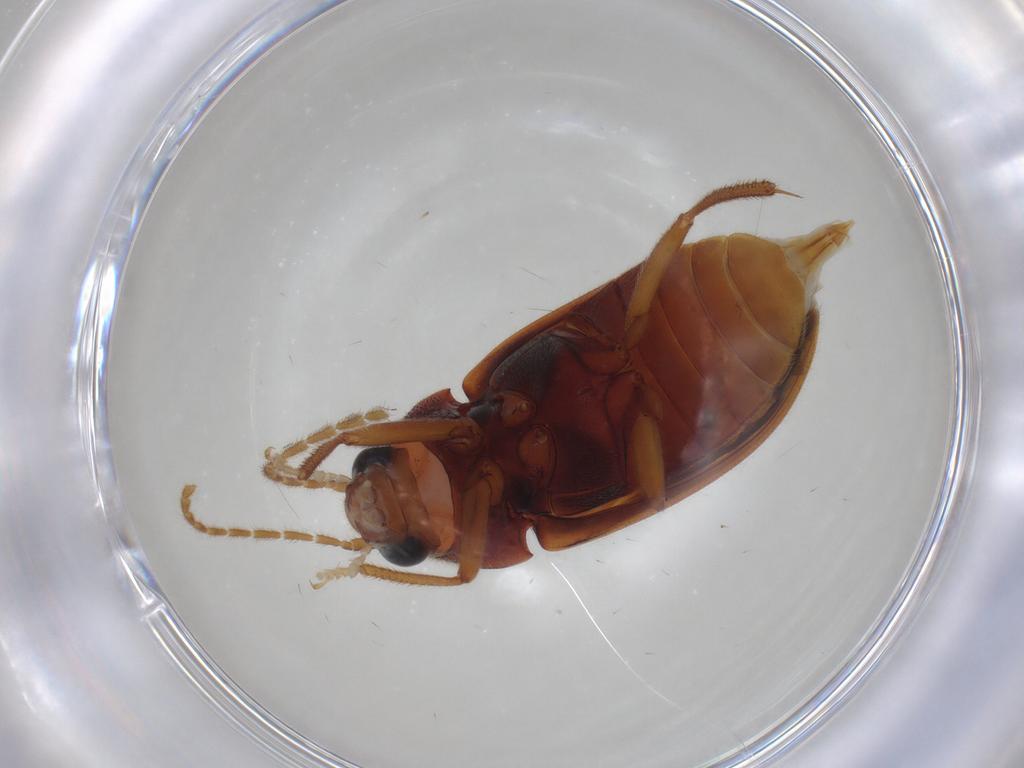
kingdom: Animalia
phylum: Arthropoda
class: Insecta
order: Coleoptera
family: Ptilodactylidae
